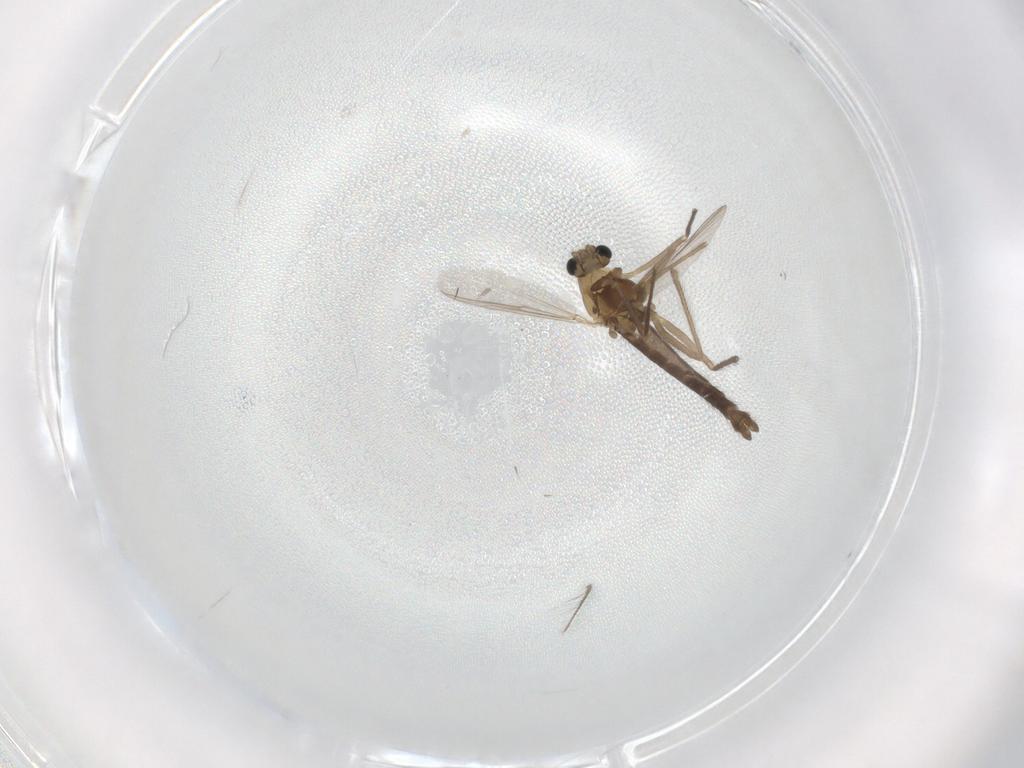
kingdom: Animalia
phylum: Arthropoda
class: Insecta
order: Diptera
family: Chironomidae
